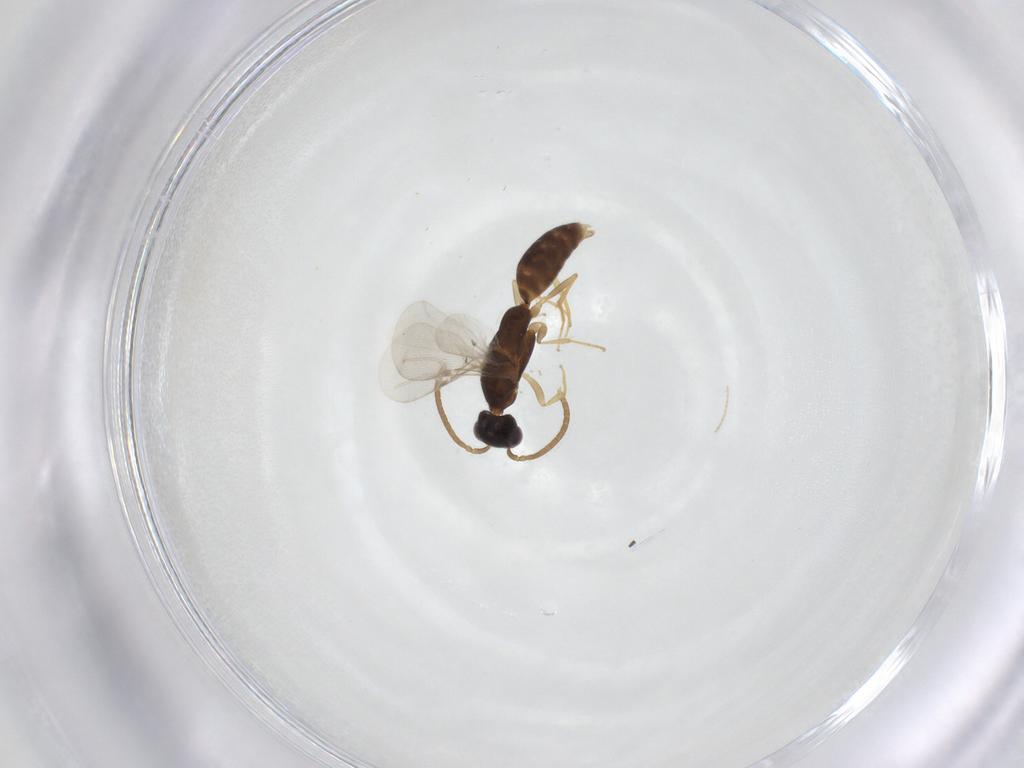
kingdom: Animalia
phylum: Arthropoda
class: Insecta
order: Hymenoptera
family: Bethylidae
